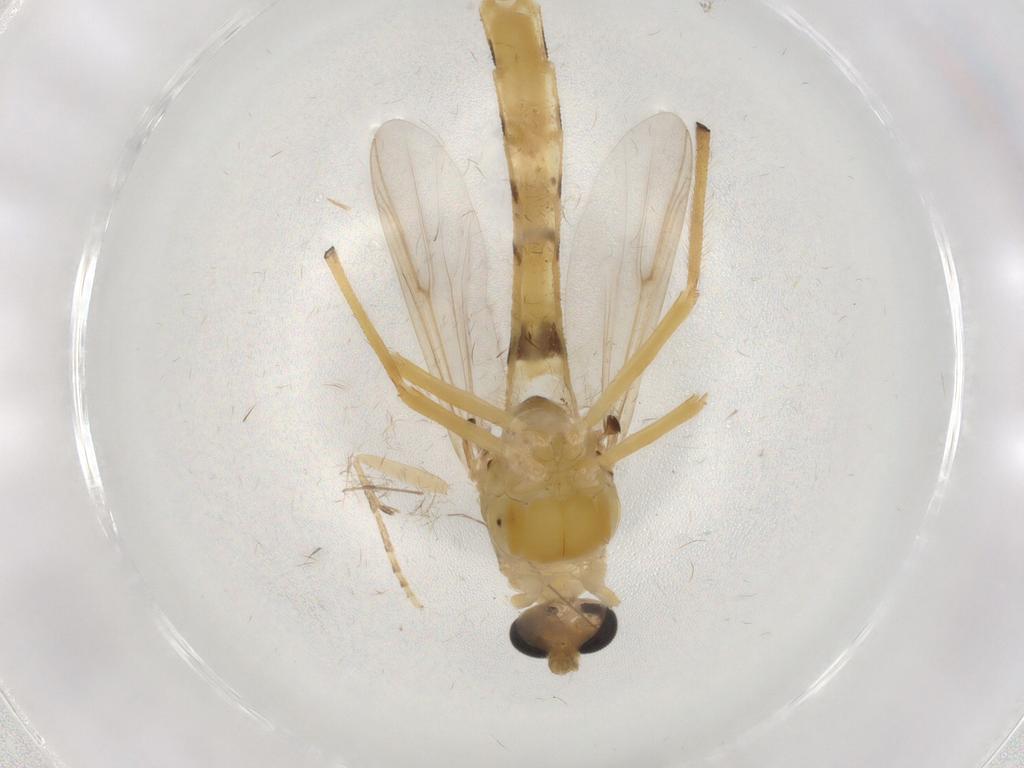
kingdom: Animalia
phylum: Arthropoda
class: Insecta
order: Diptera
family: Chironomidae
